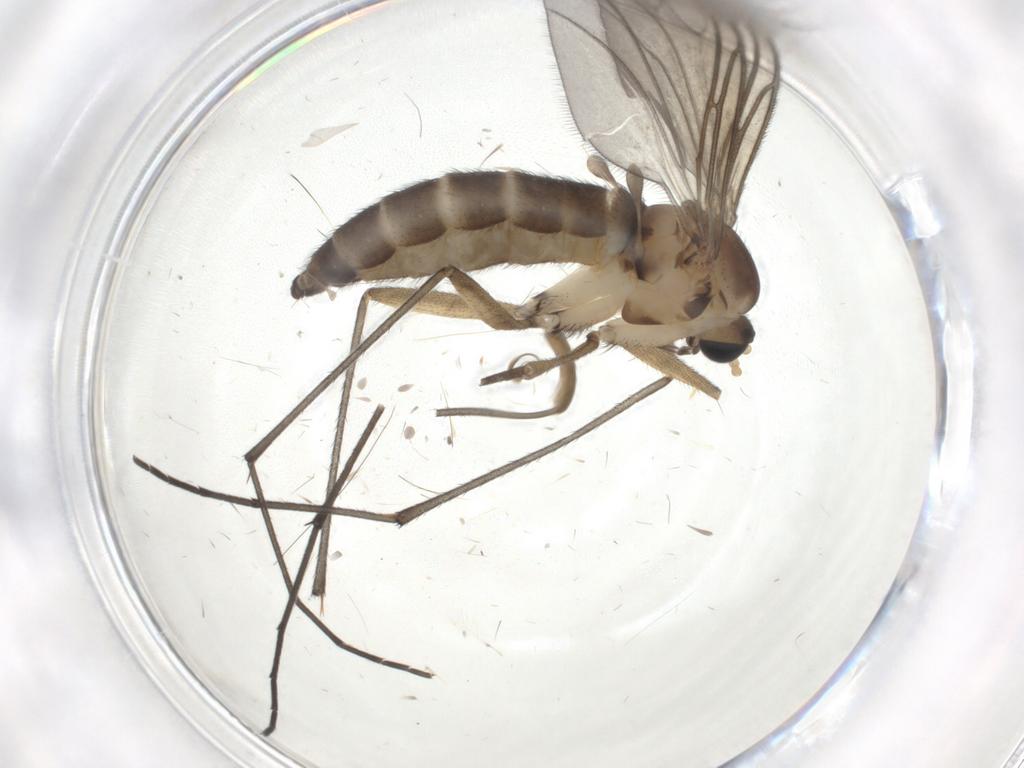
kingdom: Animalia
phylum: Arthropoda
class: Insecta
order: Diptera
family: Sciaridae
